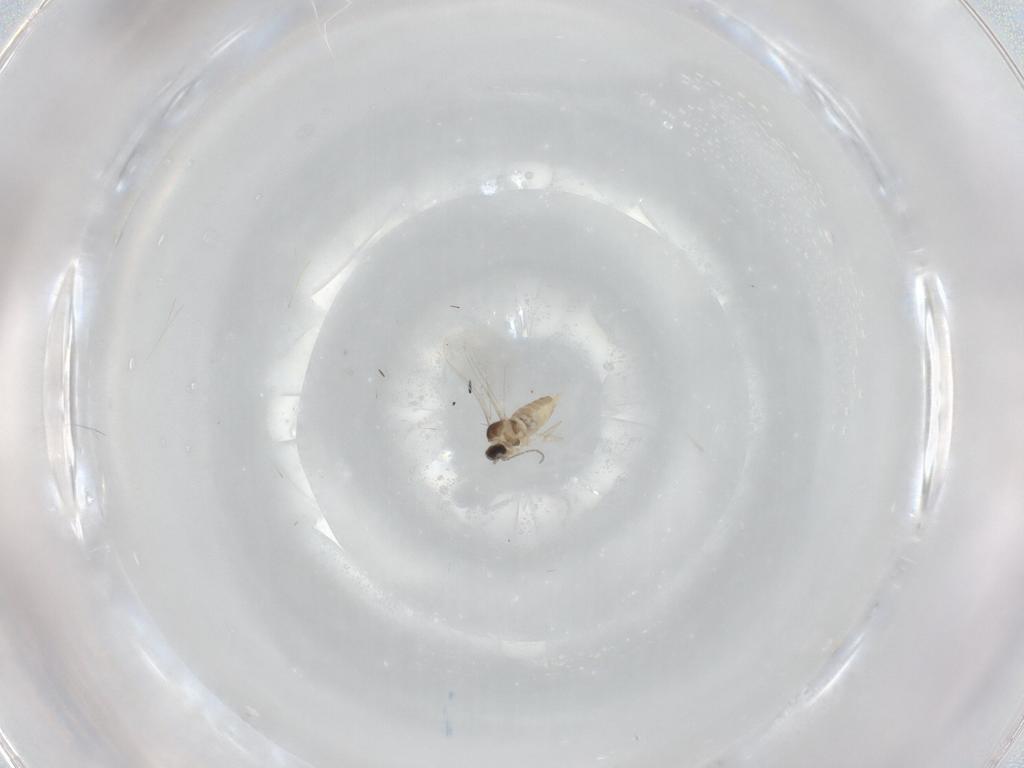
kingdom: Animalia
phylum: Arthropoda
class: Insecta
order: Diptera
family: Cecidomyiidae
